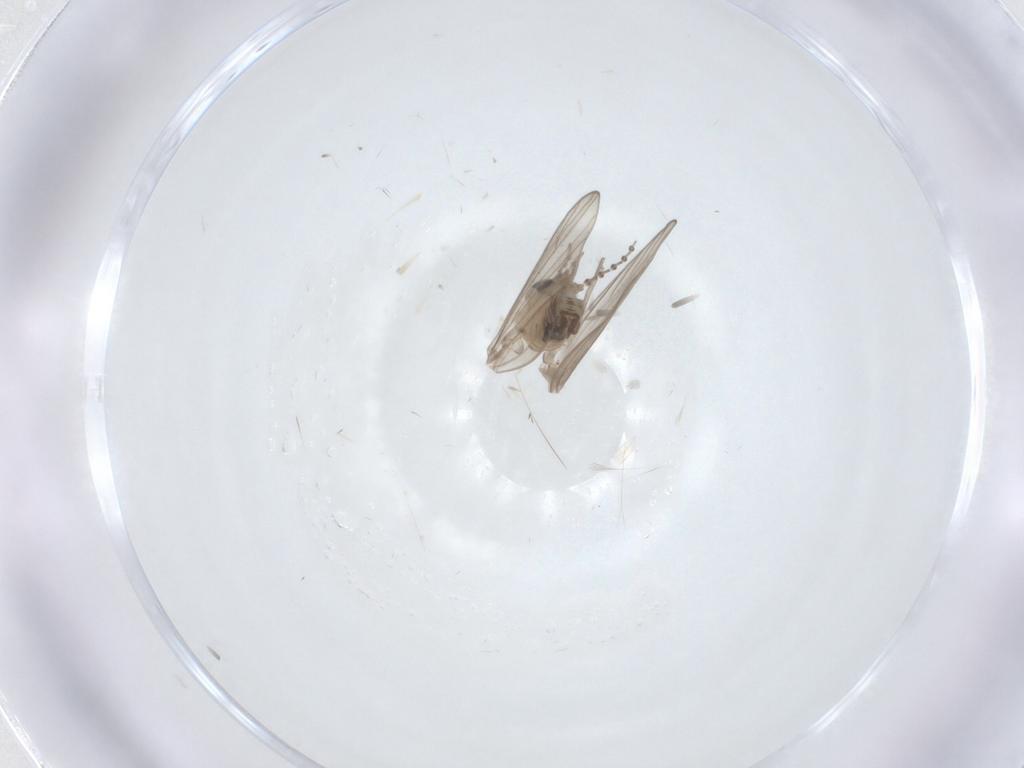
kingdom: Animalia
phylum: Arthropoda
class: Insecta
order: Diptera
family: Psychodidae
